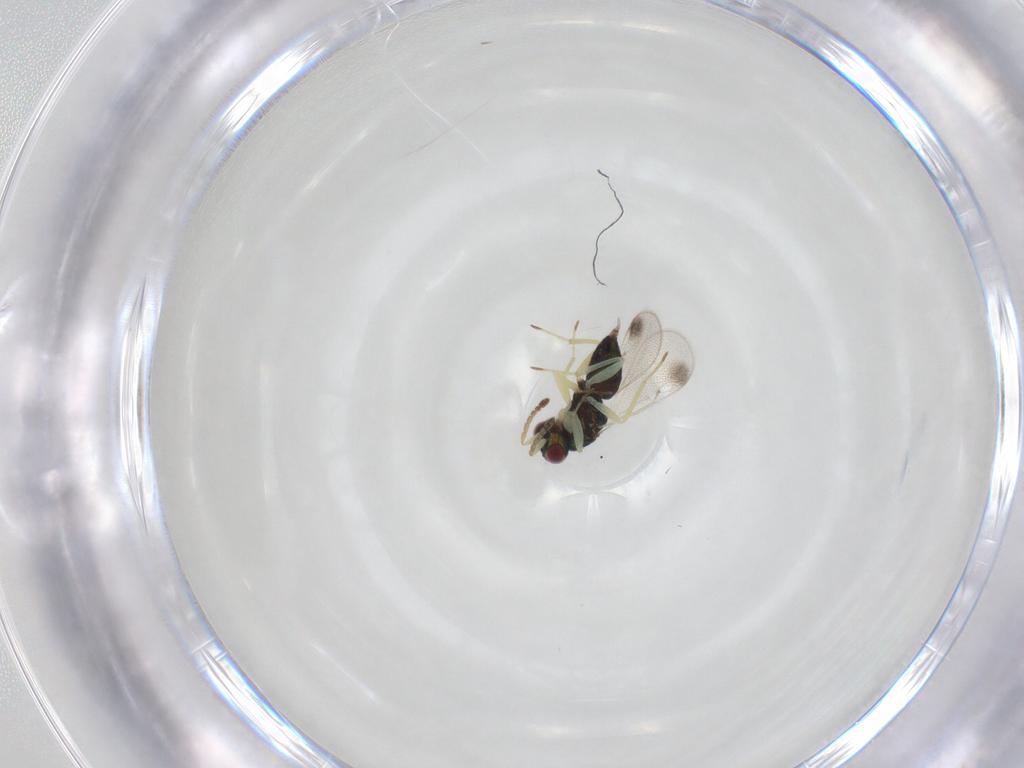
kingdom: Animalia
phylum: Arthropoda
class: Insecta
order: Hymenoptera
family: Eulophidae
